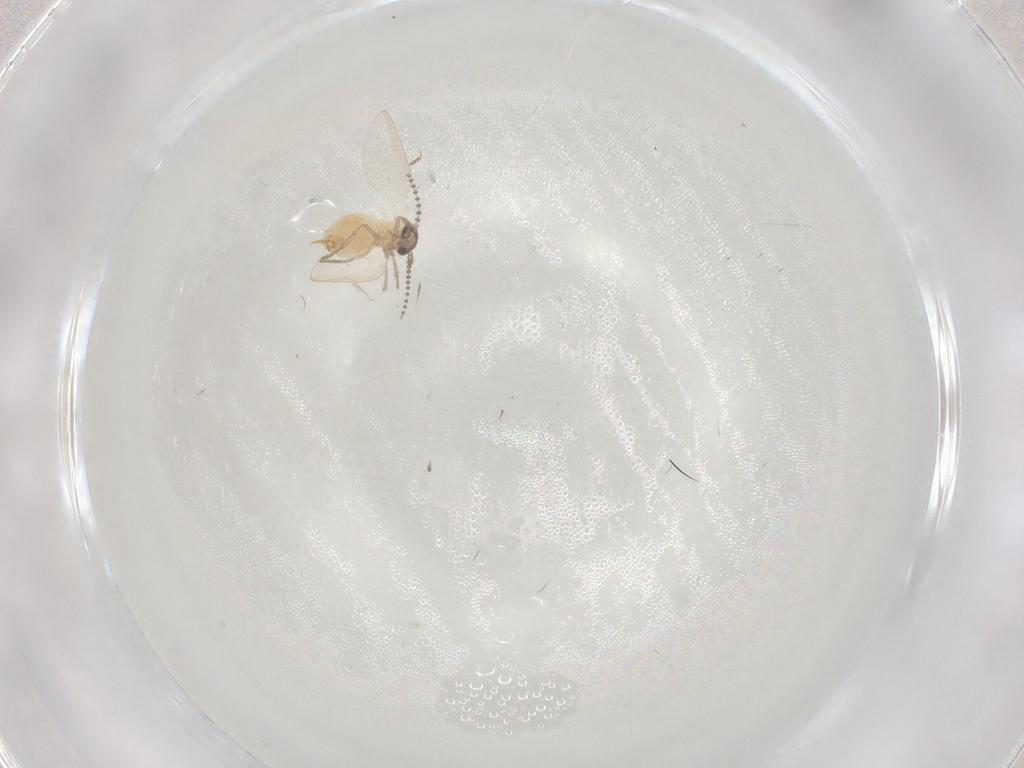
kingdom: Animalia
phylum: Arthropoda
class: Insecta
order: Diptera
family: Psychodidae
